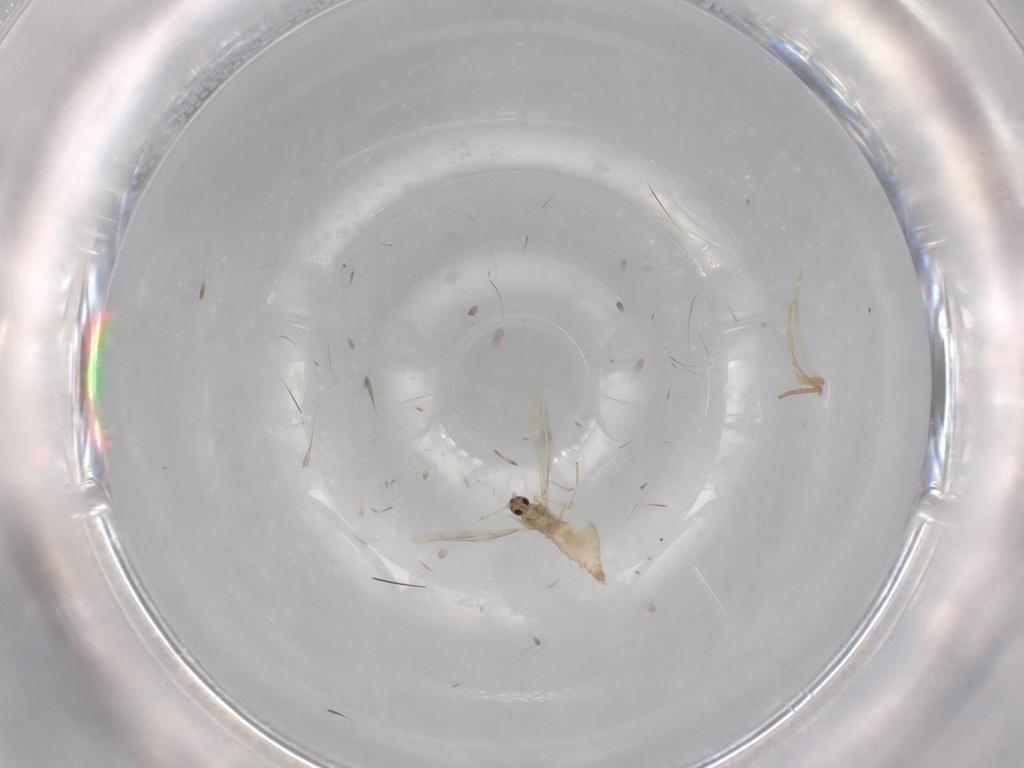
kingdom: Animalia
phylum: Arthropoda
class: Insecta
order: Diptera
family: Cecidomyiidae
